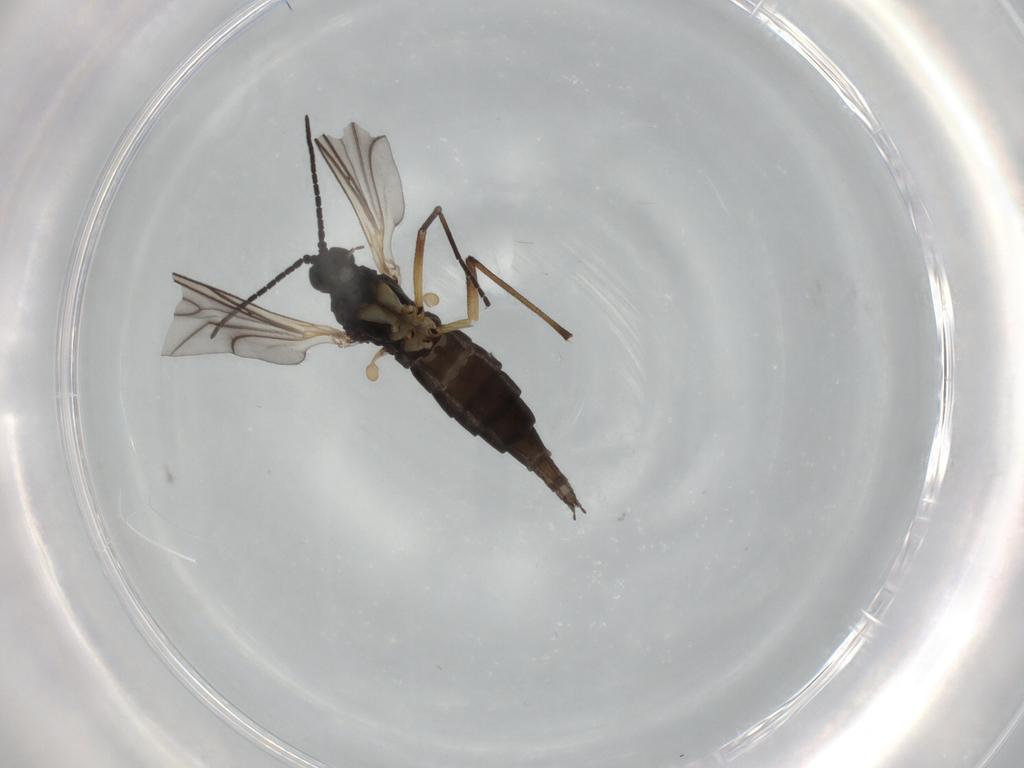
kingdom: Animalia
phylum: Arthropoda
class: Insecta
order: Diptera
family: Sciaridae
